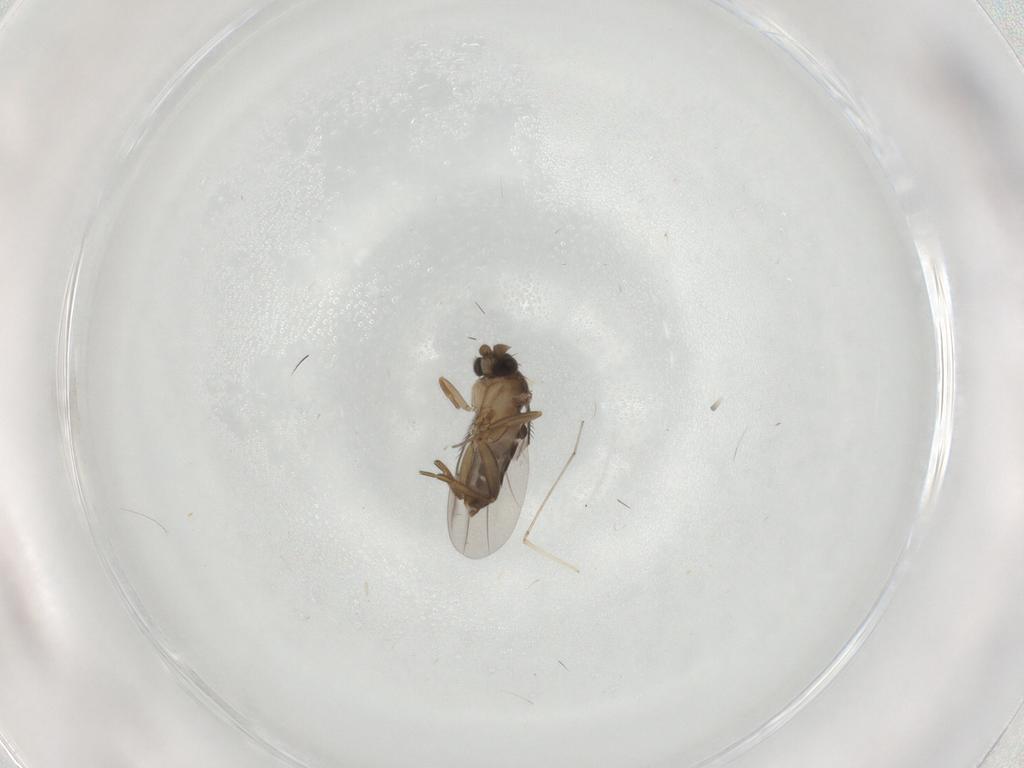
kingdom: Animalia
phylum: Arthropoda
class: Insecta
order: Diptera
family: Phoridae
